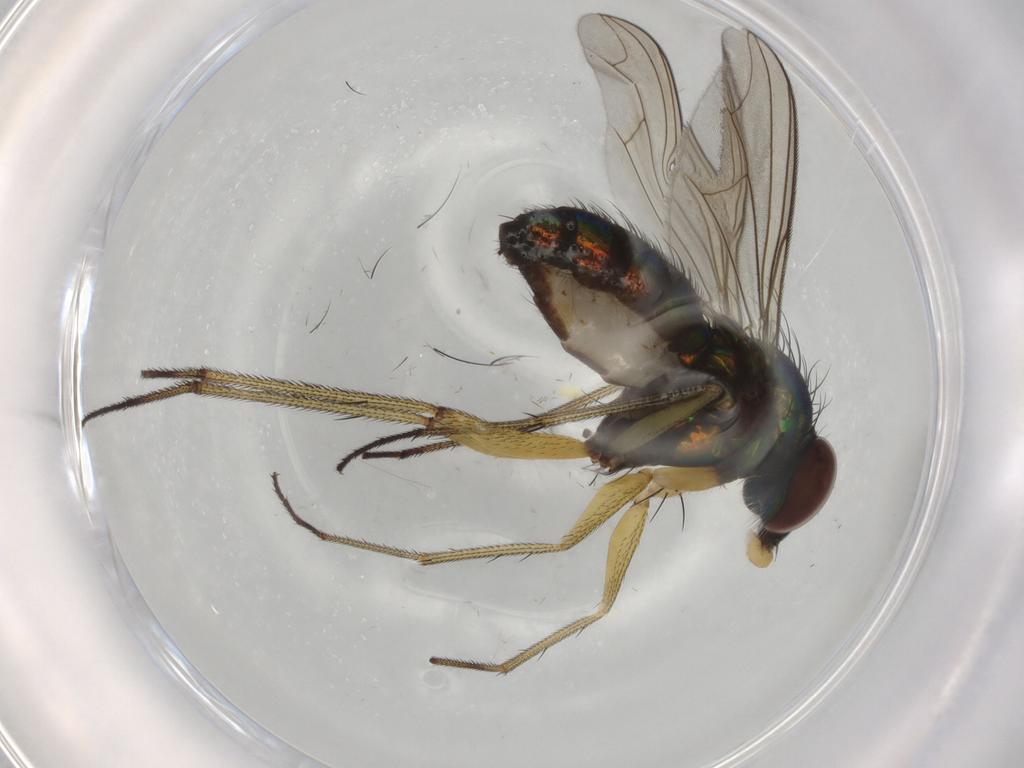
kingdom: Animalia
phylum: Arthropoda
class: Insecta
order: Diptera
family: Dolichopodidae
